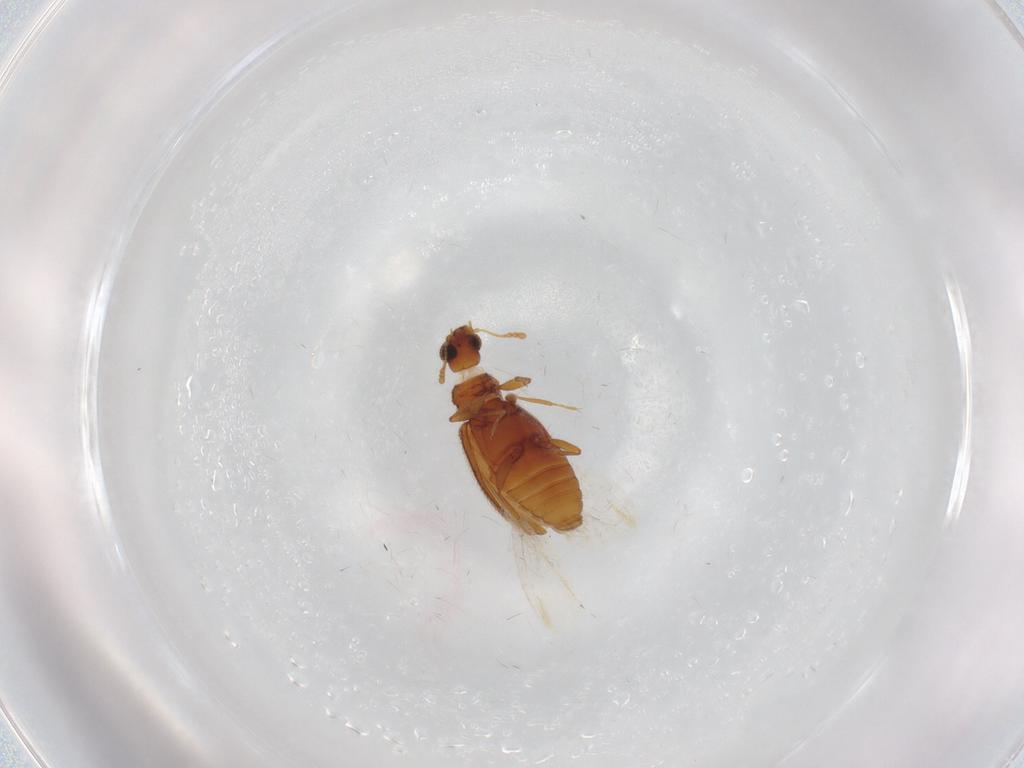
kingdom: Animalia
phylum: Arthropoda
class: Insecta
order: Coleoptera
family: Latridiidae
